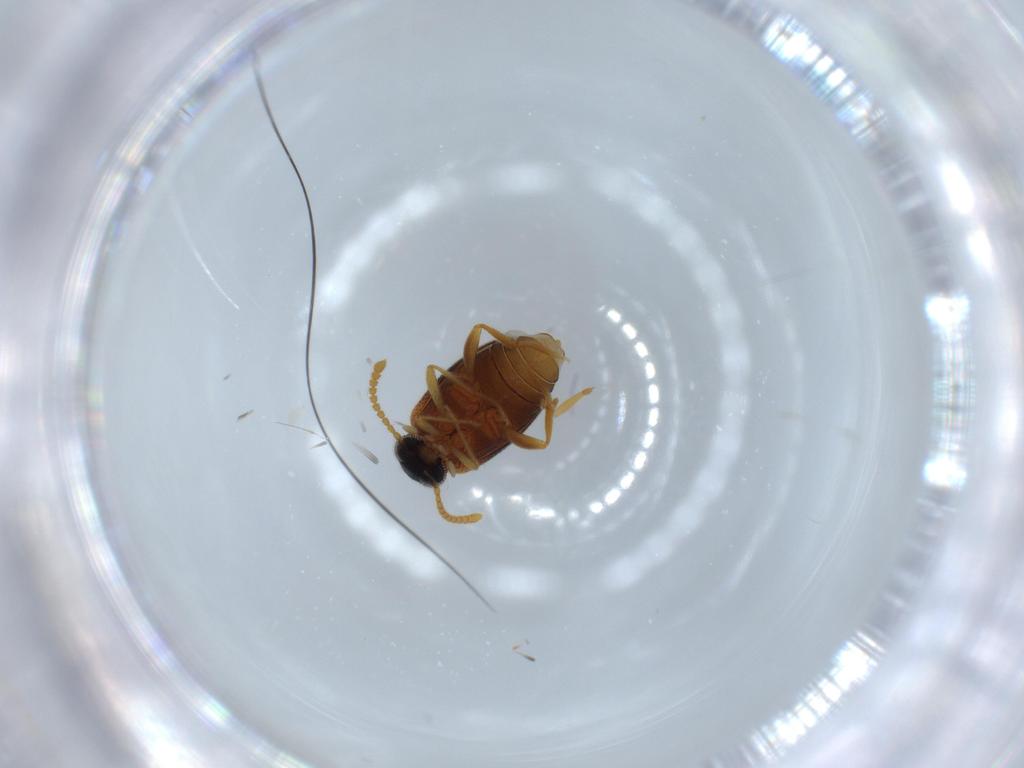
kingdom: Animalia
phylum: Arthropoda
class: Insecta
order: Coleoptera
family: Aderidae
